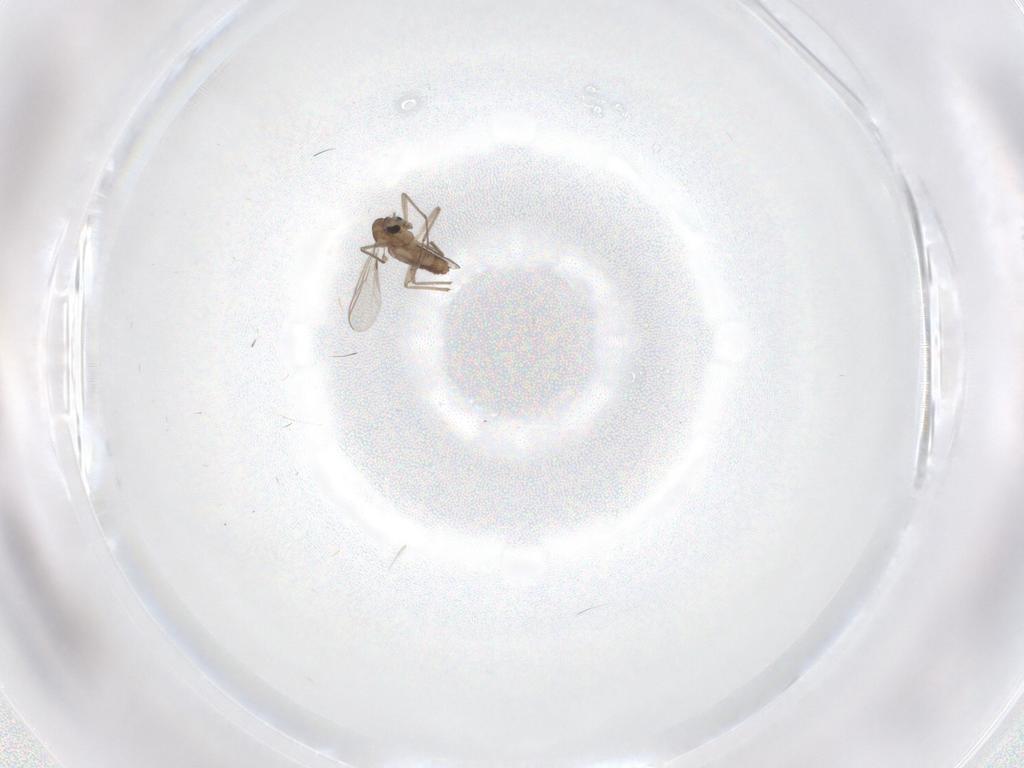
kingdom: Animalia
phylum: Arthropoda
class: Insecta
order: Diptera
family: Chironomidae
